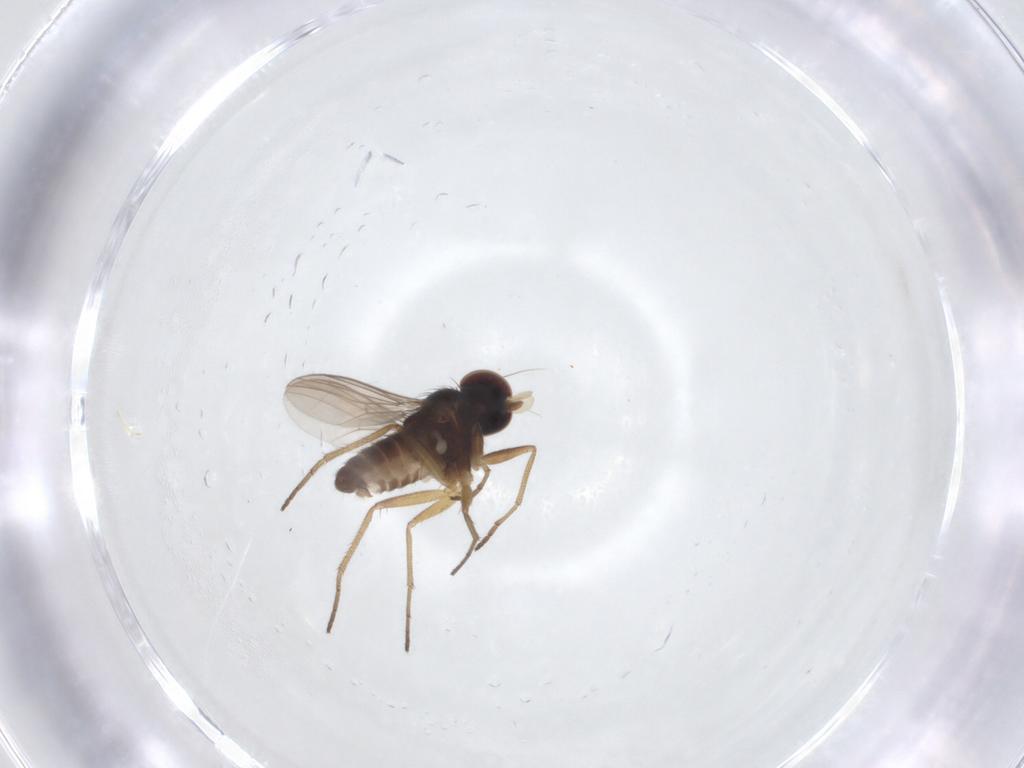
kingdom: Animalia
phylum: Arthropoda
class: Insecta
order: Diptera
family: Dolichopodidae
